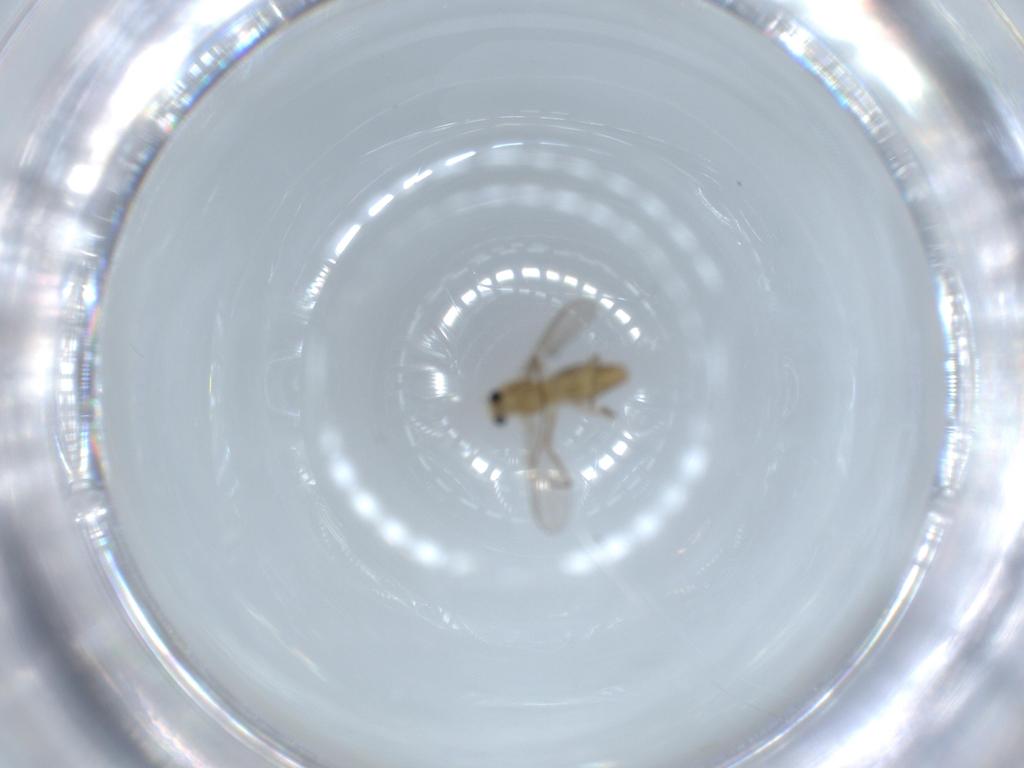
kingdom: Animalia
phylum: Arthropoda
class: Insecta
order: Diptera
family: Chironomidae
